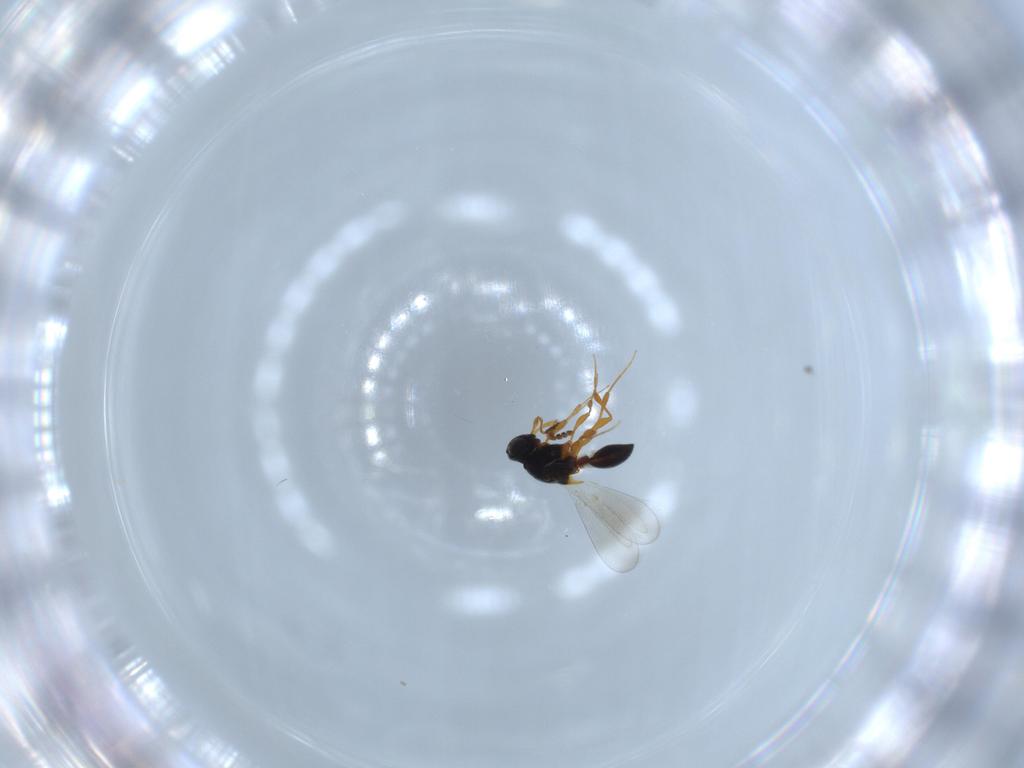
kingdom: Animalia
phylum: Arthropoda
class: Insecta
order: Hymenoptera
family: Platygastridae
